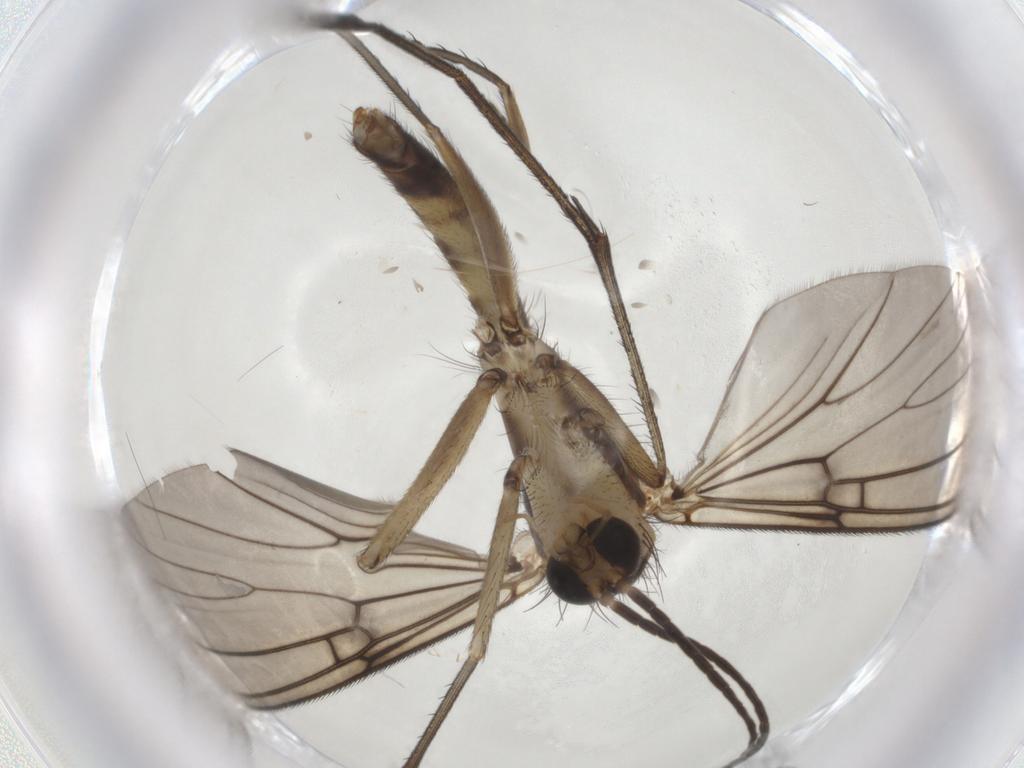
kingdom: Animalia
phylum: Arthropoda
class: Insecta
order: Diptera
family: Mycetophilidae
